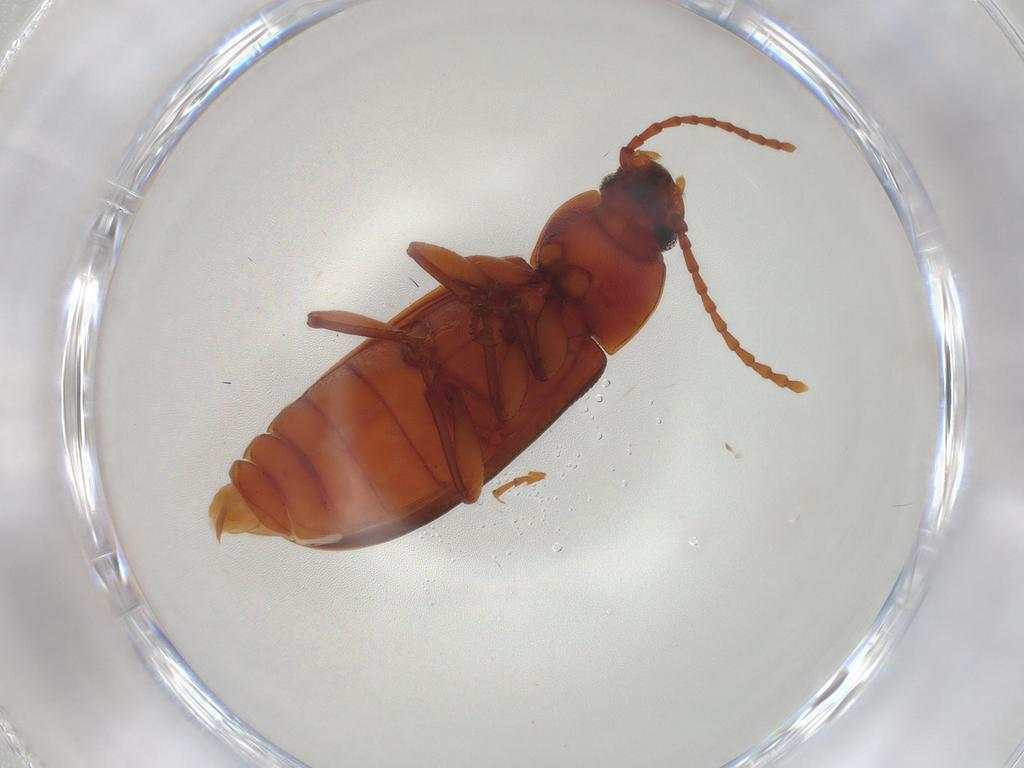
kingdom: Animalia
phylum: Arthropoda
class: Insecta
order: Coleoptera
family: Tenebrionidae
